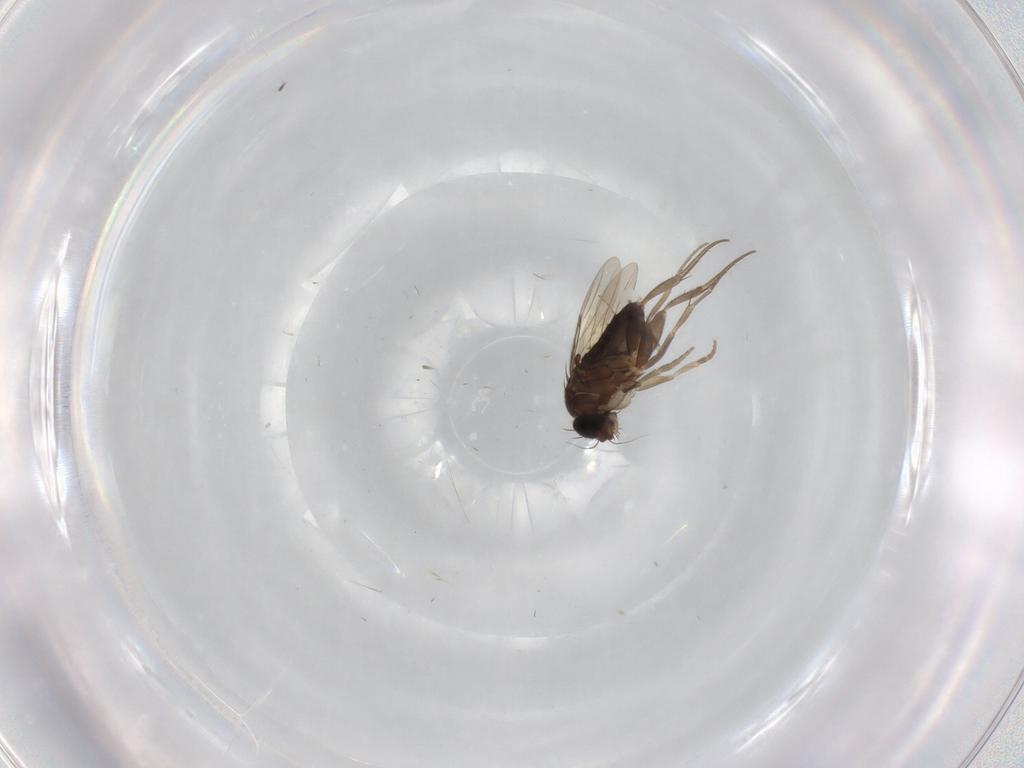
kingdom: Animalia
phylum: Arthropoda
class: Insecta
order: Diptera
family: Phoridae
